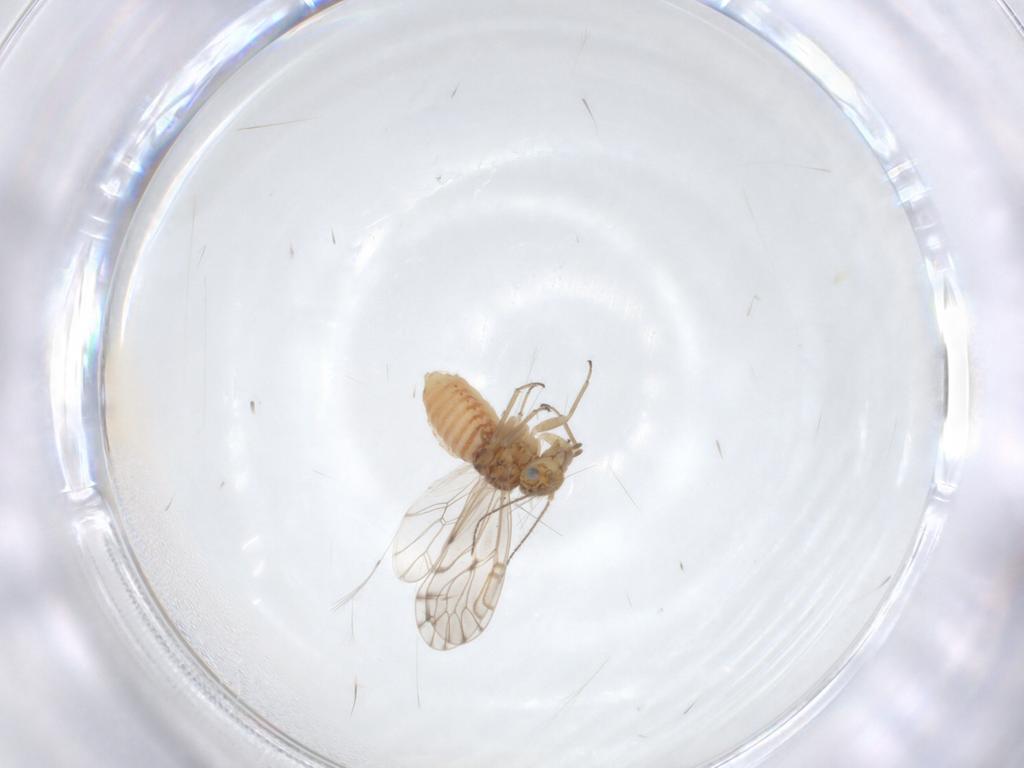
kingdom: Animalia
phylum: Arthropoda
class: Insecta
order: Psocodea
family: Ectopsocidae
